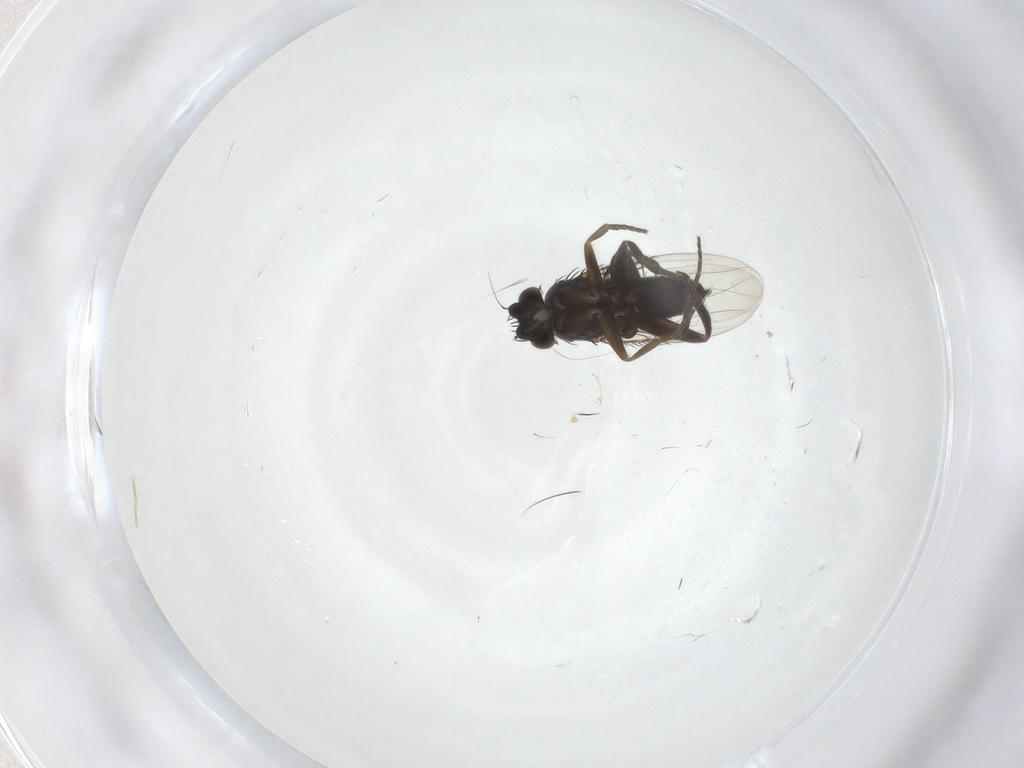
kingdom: Animalia
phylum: Arthropoda
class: Insecta
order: Diptera
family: Phoridae
